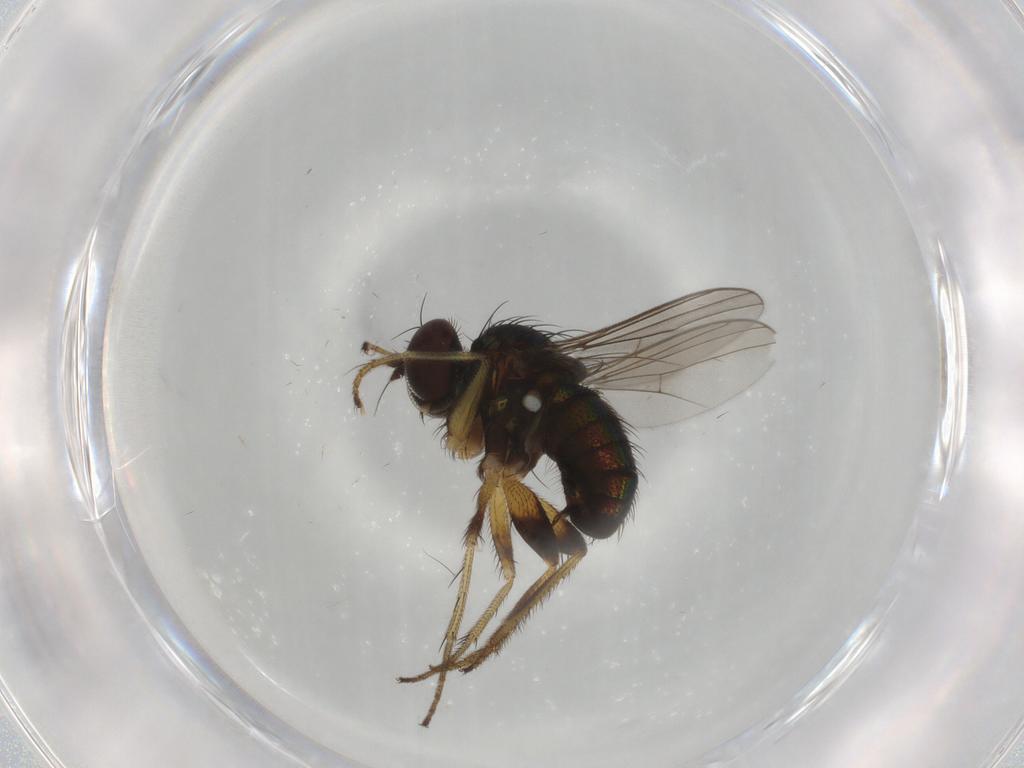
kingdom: Animalia
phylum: Arthropoda
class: Insecta
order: Diptera
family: Dolichopodidae
